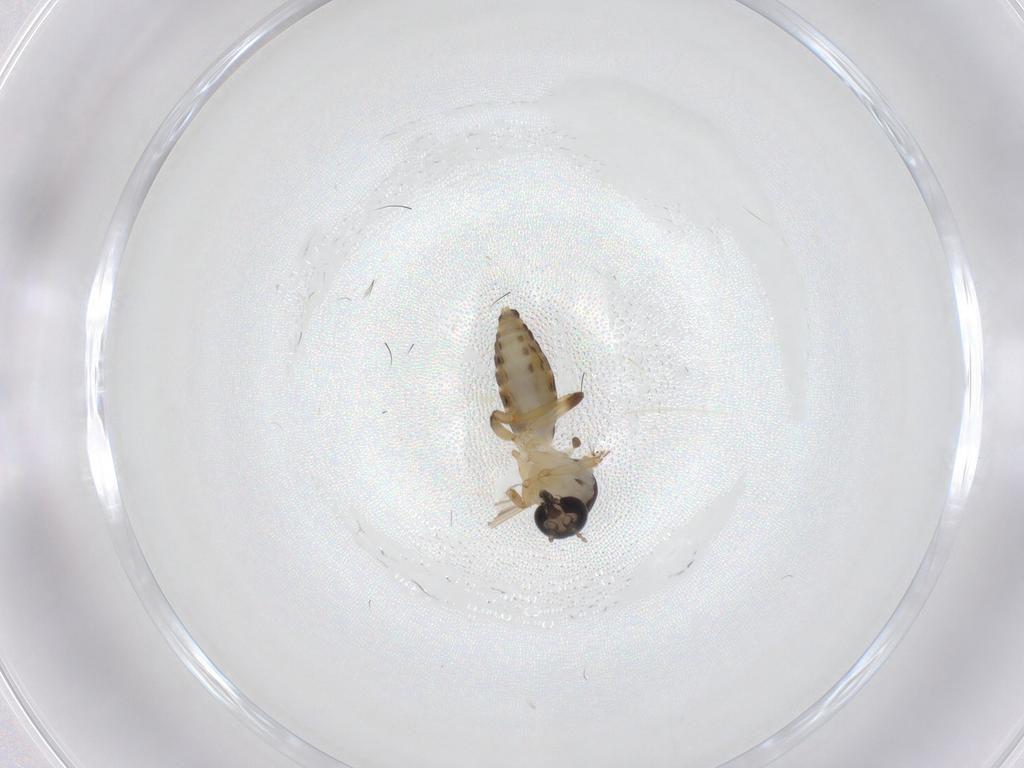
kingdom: Animalia
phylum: Arthropoda
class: Insecta
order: Diptera
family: Ceratopogonidae
